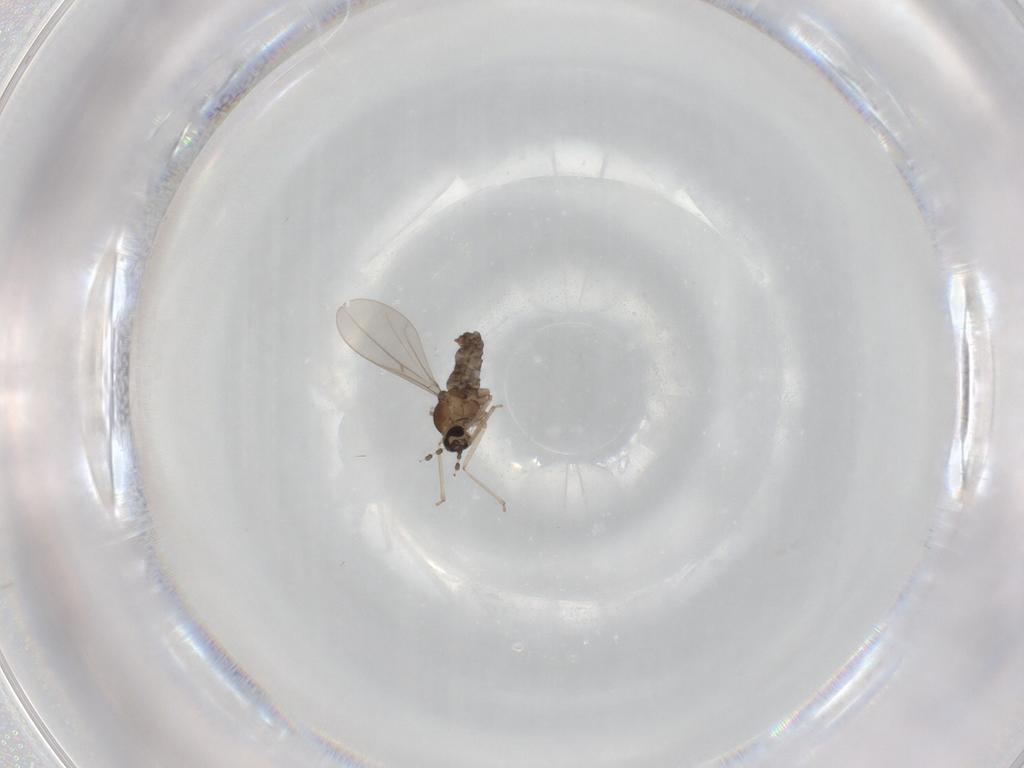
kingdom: Animalia
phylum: Arthropoda
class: Insecta
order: Diptera
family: Cecidomyiidae
